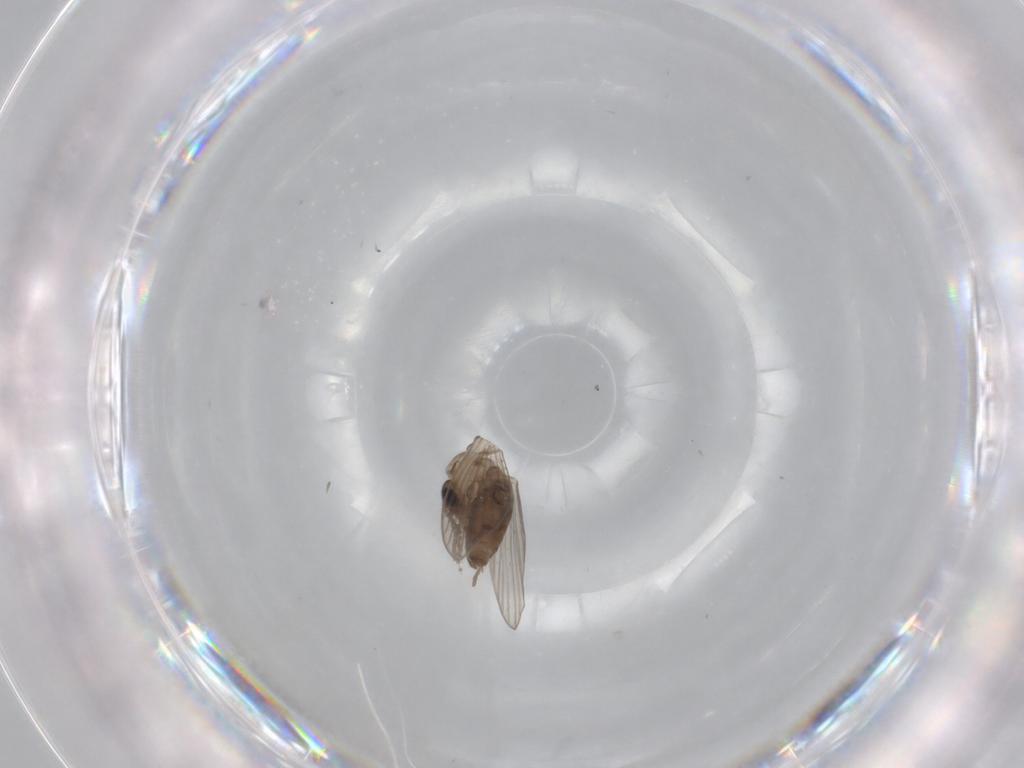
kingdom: Animalia
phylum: Arthropoda
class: Insecta
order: Diptera
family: Psychodidae
